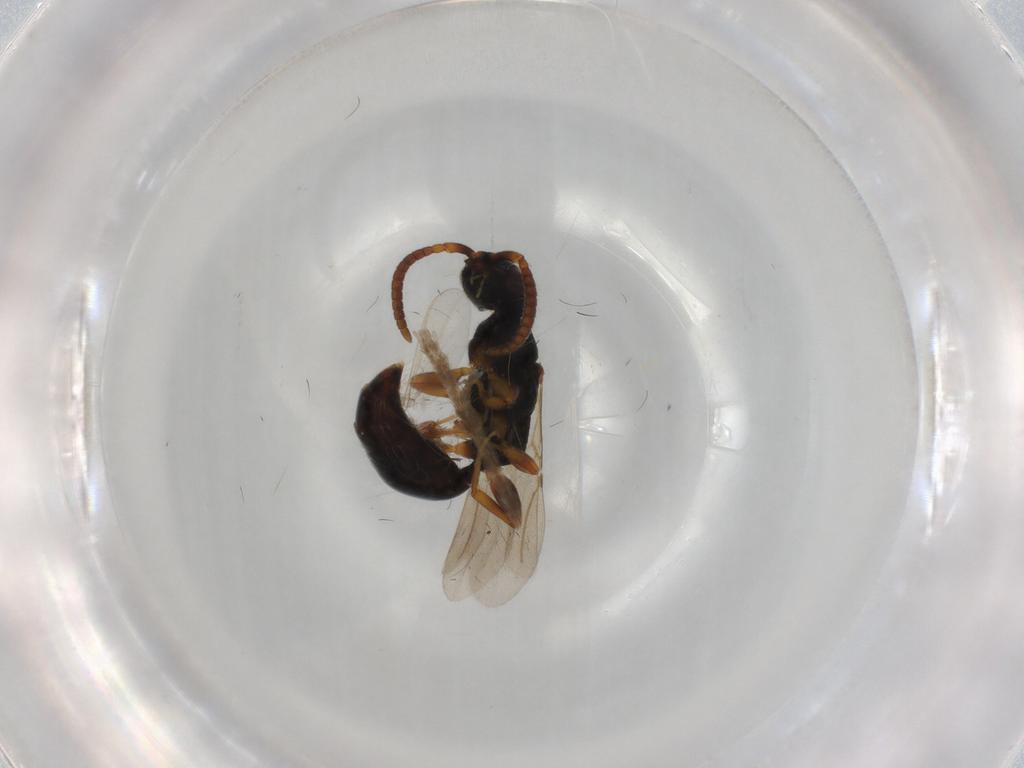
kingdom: Animalia
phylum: Arthropoda
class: Insecta
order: Hymenoptera
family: Bethylidae
